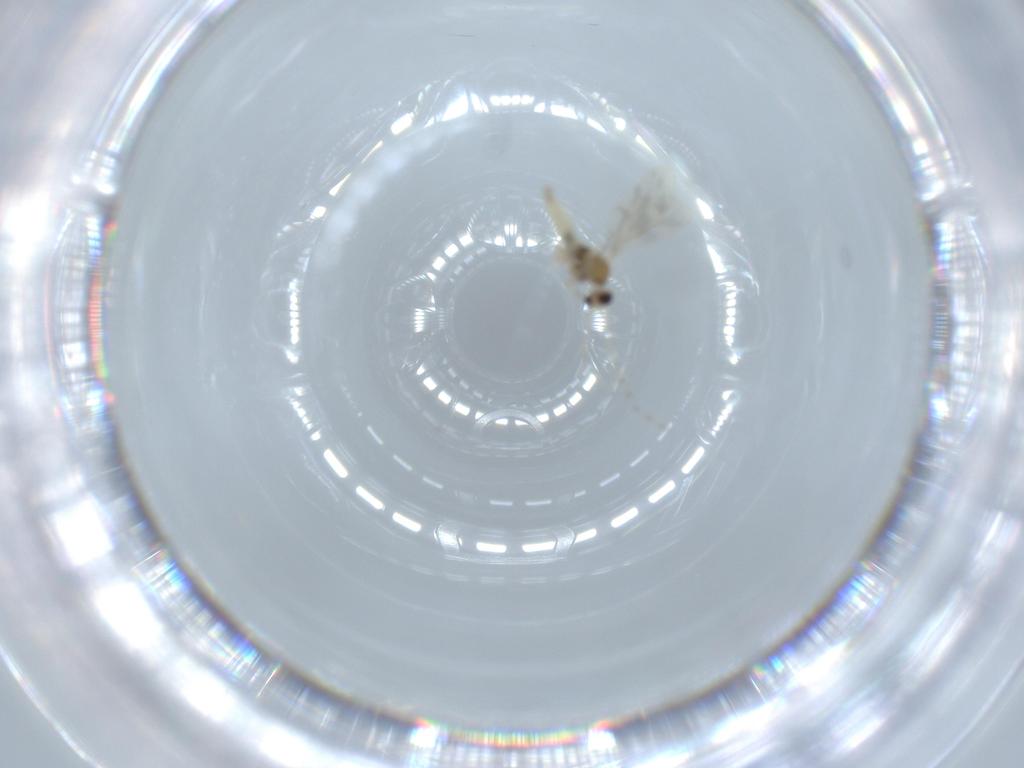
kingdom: Animalia
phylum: Arthropoda
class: Insecta
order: Diptera
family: Cecidomyiidae
